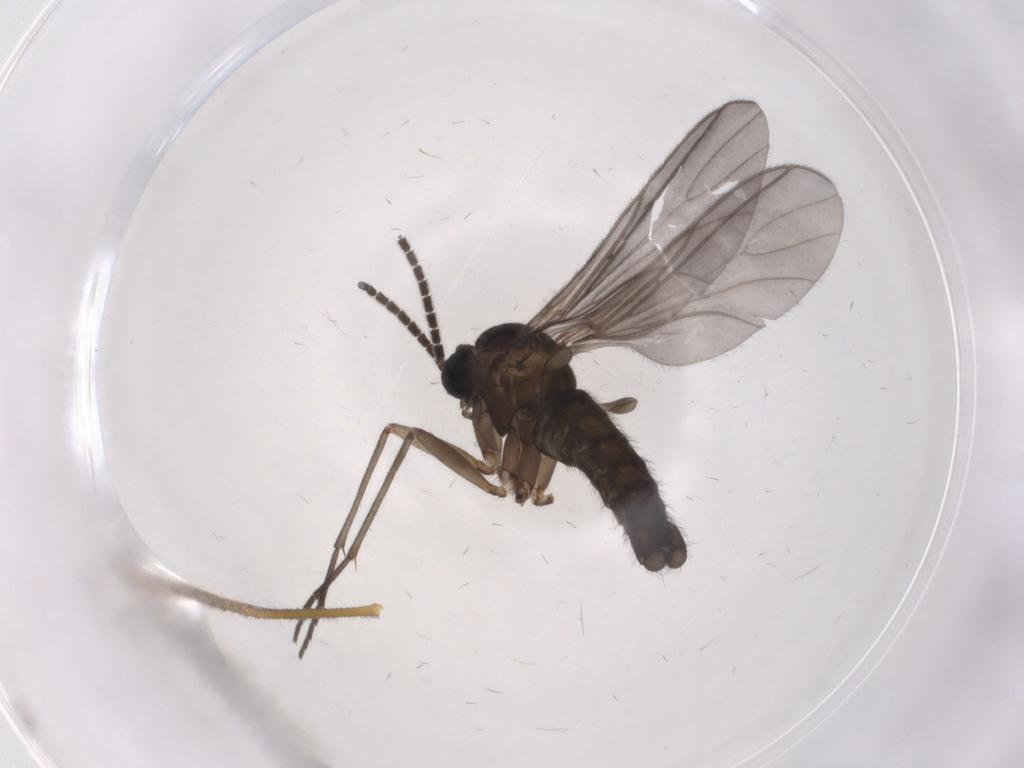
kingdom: Animalia
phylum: Arthropoda
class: Insecta
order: Diptera
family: Sciaridae
